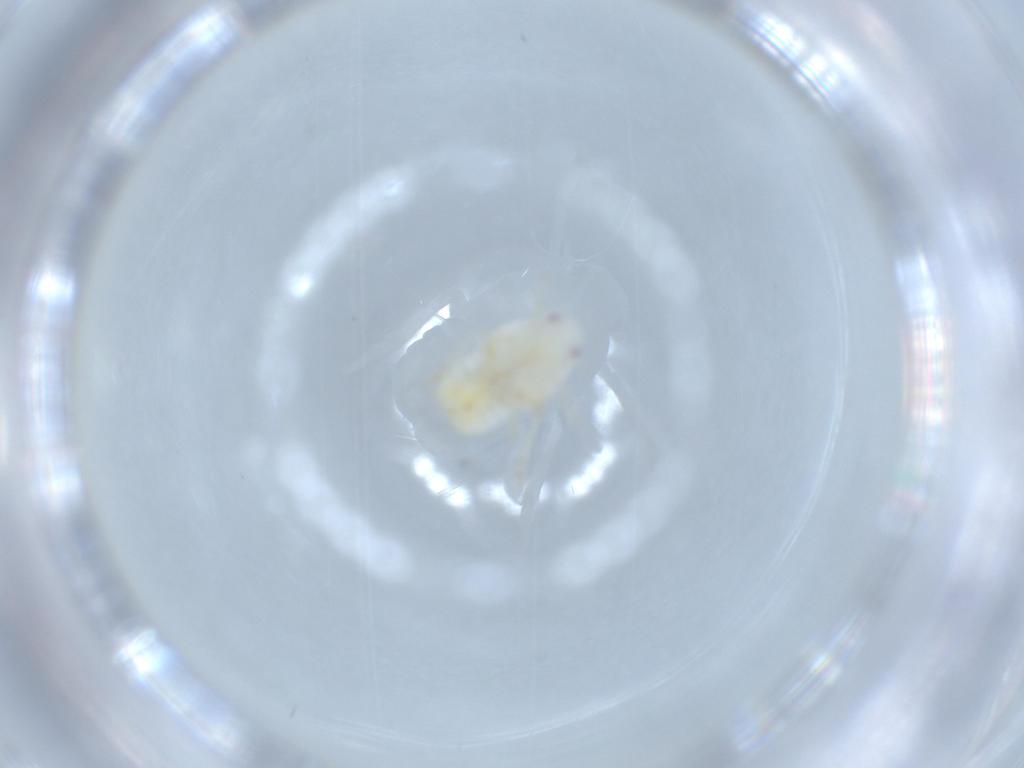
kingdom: Animalia
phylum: Arthropoda
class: Insecta
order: Hemiptera
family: Flatidae
